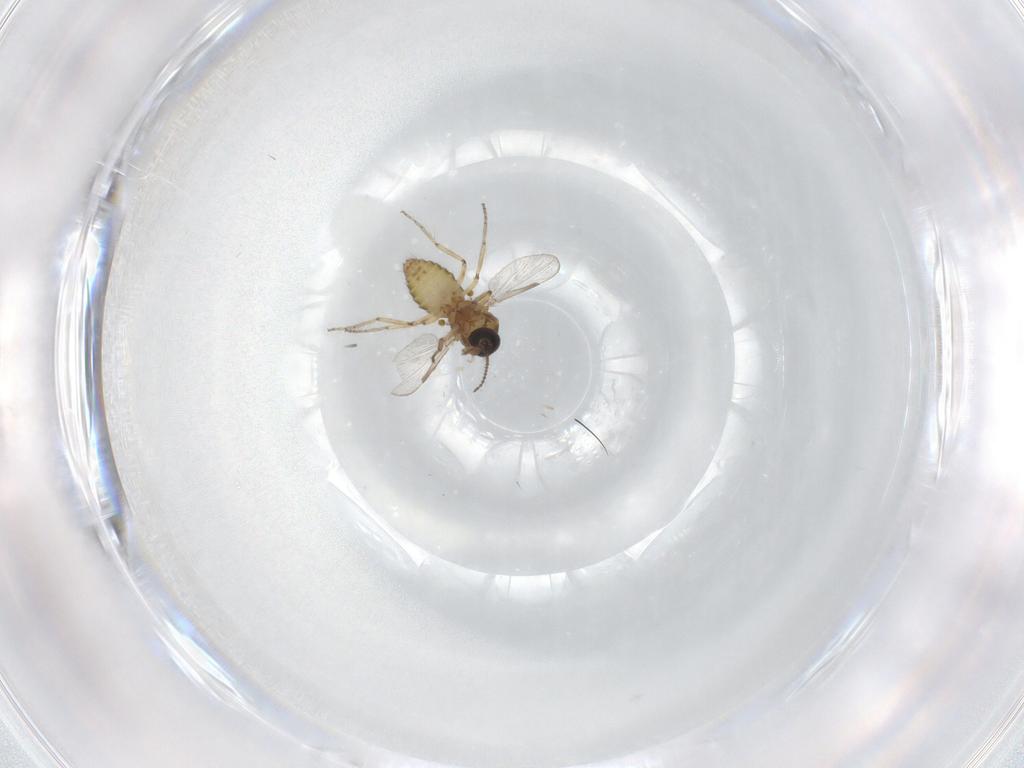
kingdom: Animalia
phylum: Arthropoda
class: Insecta
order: Diptera
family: Ceratopogonidae
